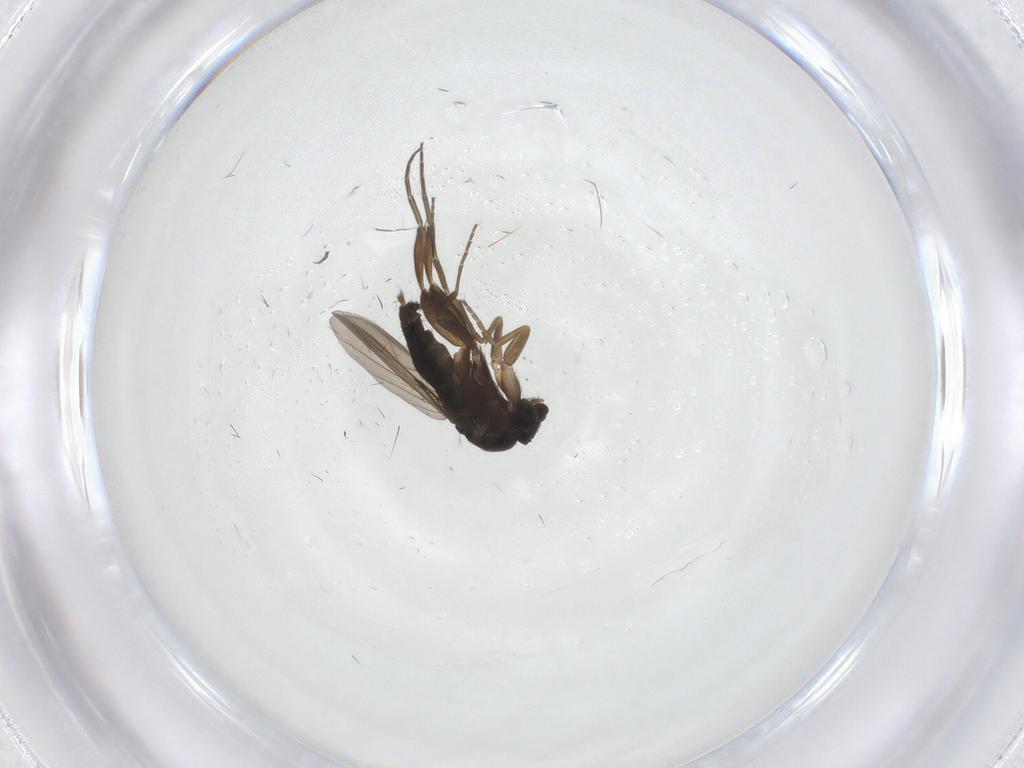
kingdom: Animalia
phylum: Arthropoda
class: Insecta
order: Diptera
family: Phoridae
